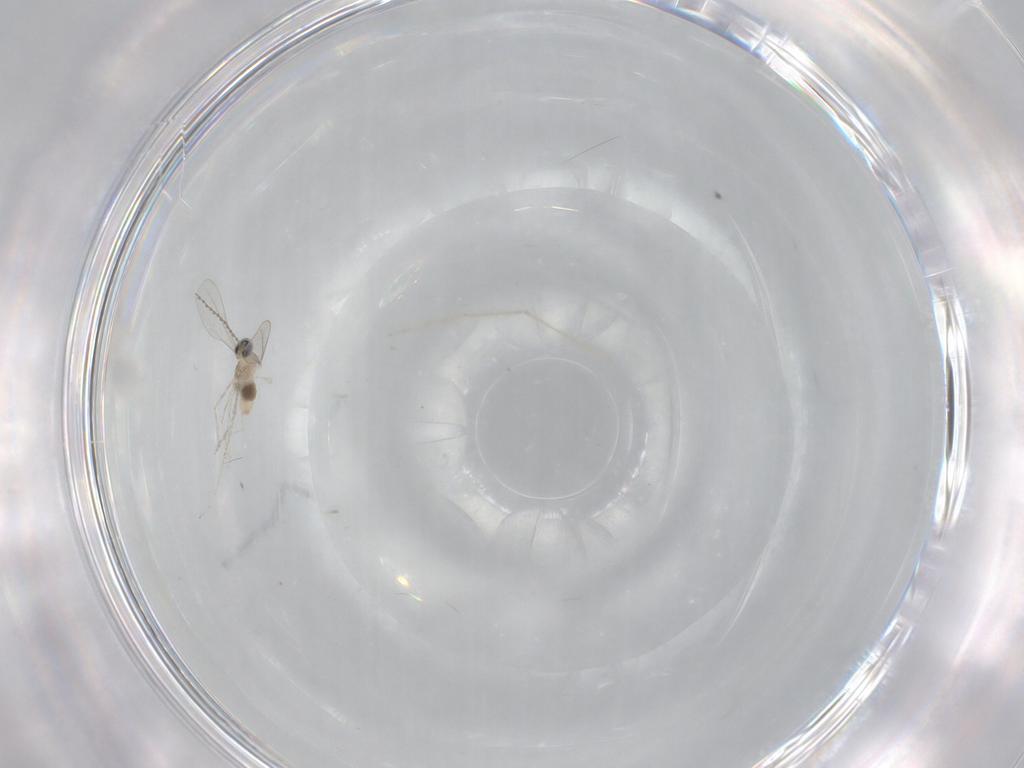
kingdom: Animalia
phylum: Arthropoda
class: Insecta
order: Diptera
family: Cecidomyiidae
